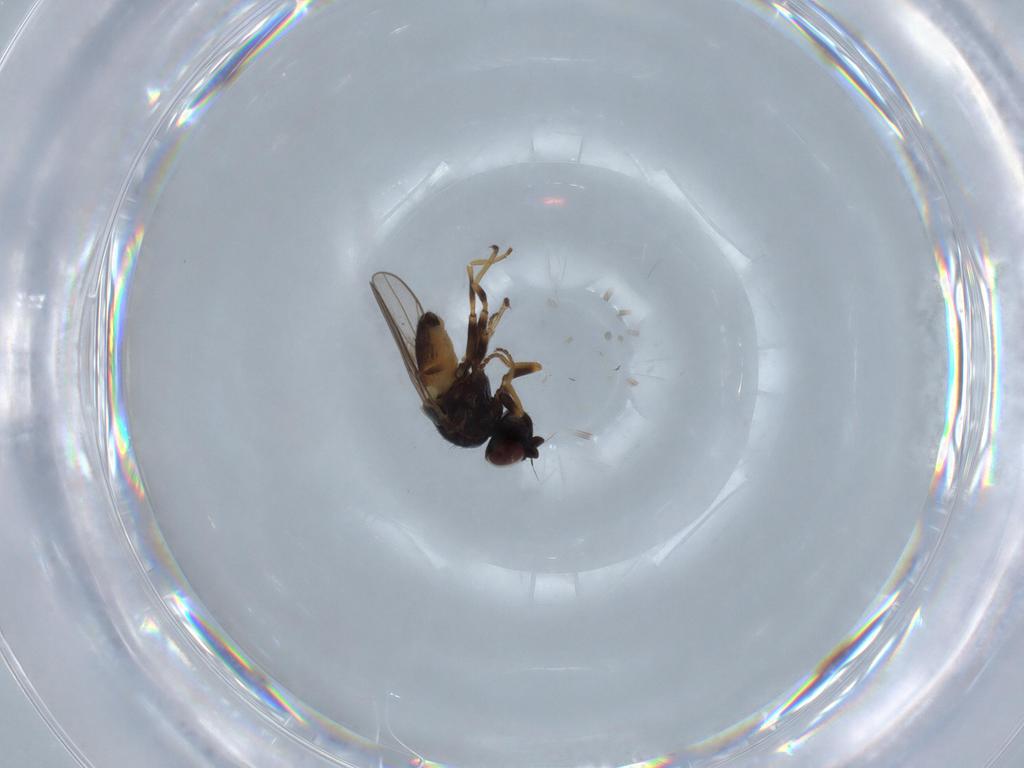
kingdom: Animalia
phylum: Arthropoda
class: Insecta
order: Diptera
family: Chloropidae
